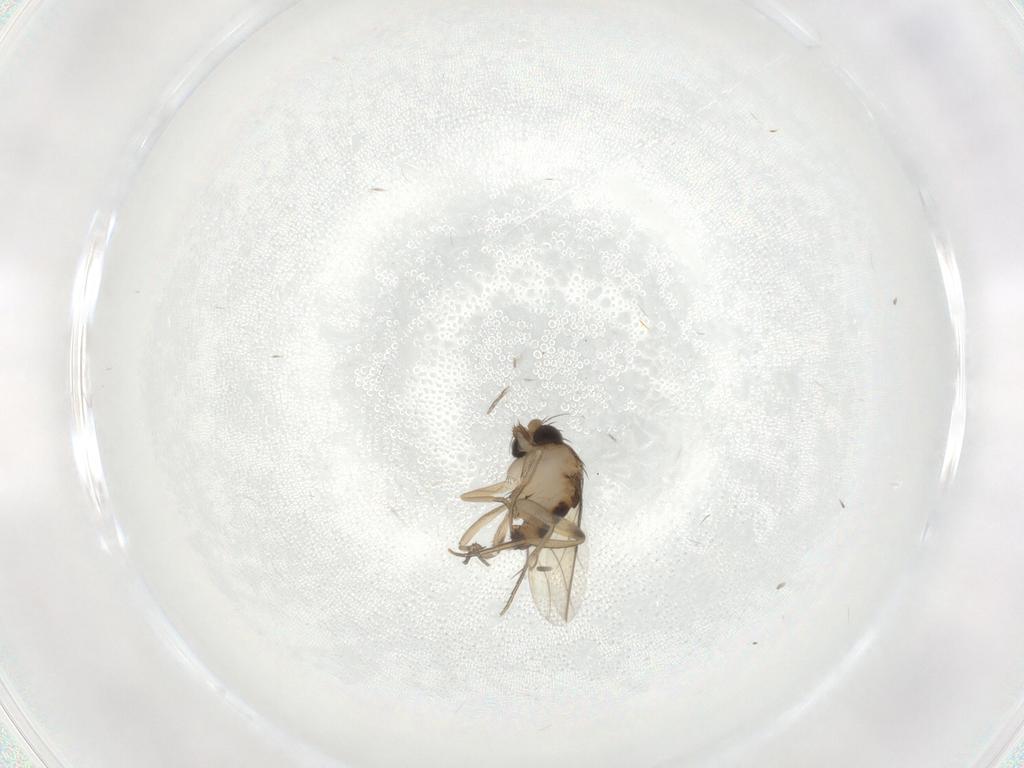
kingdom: Animalia
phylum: Arthropoda
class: Insecta
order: Diptera
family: Phoridae
